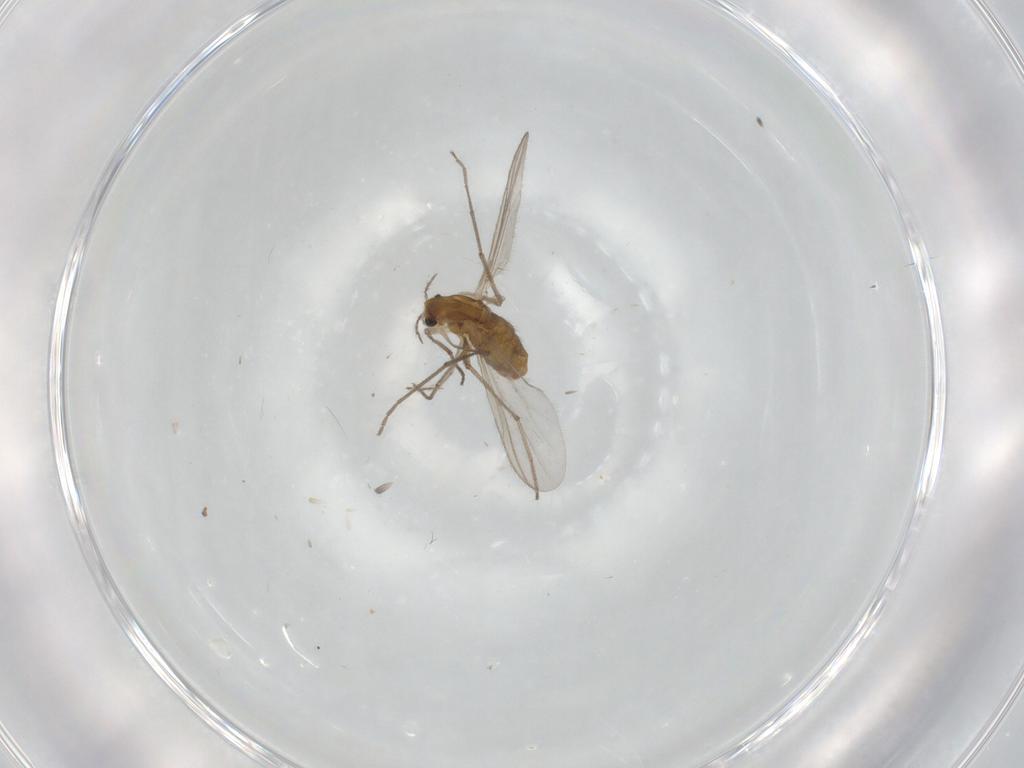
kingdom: Animalia
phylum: Arthropoda
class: Insecta
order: Diptera
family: Chironomidae
